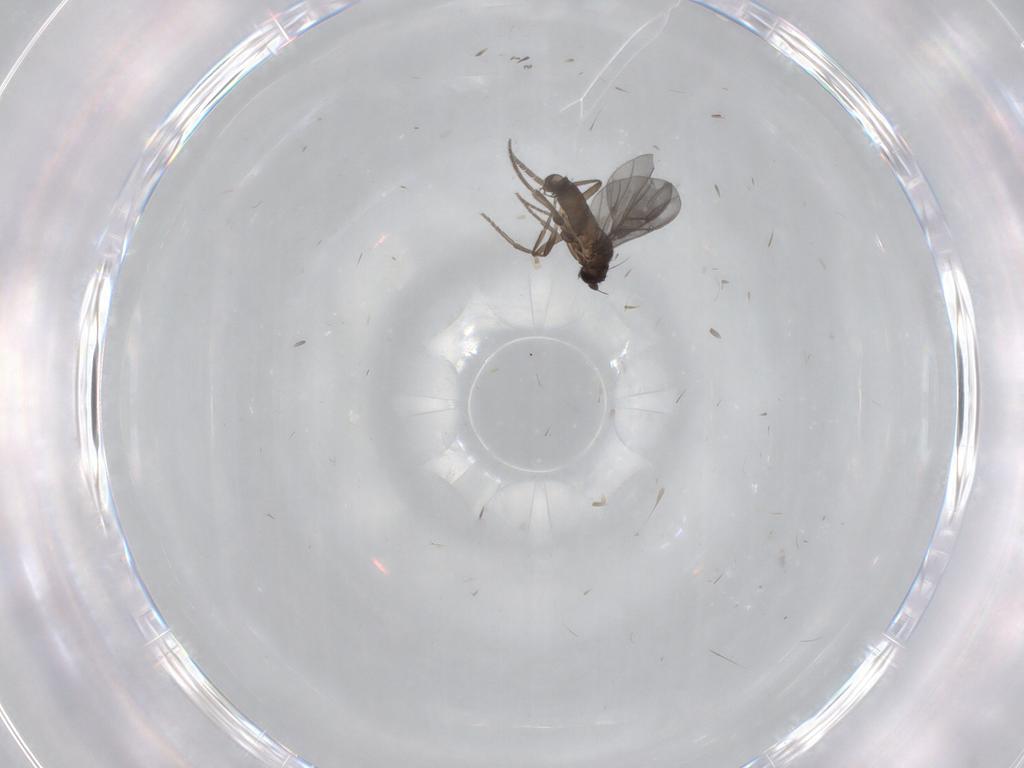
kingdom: Animalia
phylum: Arthropoda
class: Insecta
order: Diptera
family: Phoridae
